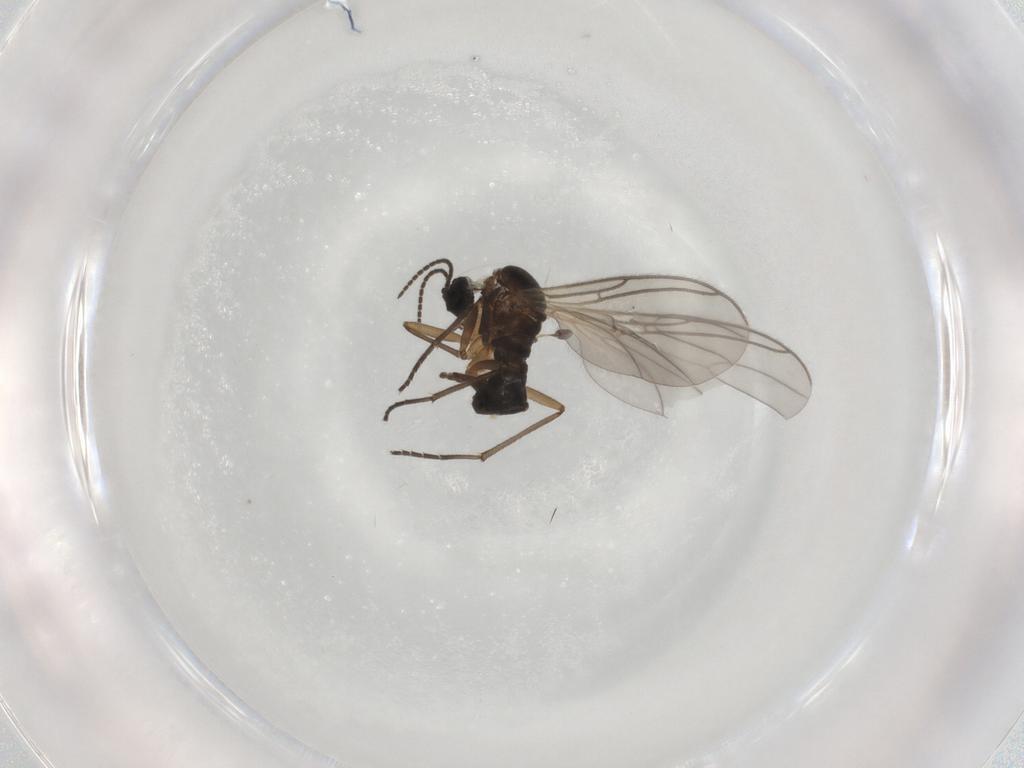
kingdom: Animalia
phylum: Arthropoda
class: Insecta
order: Diptera
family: Sciaridae
